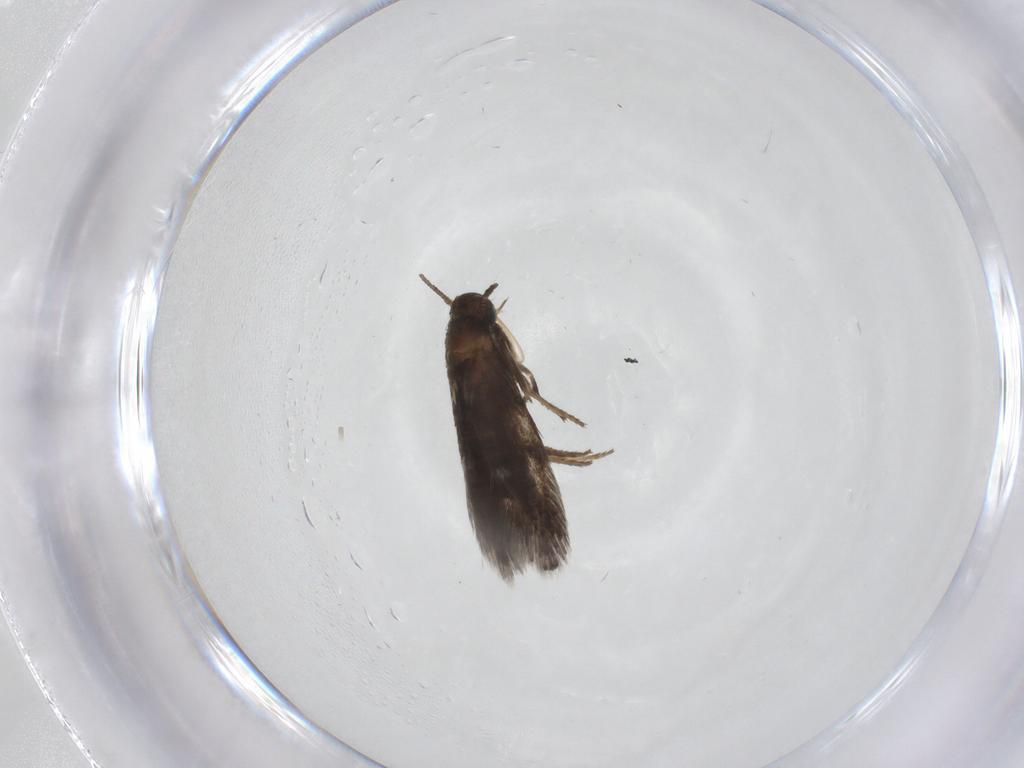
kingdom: Animalia
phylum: Arthropoda
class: Insecta
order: Lepidoptera
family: Heliozelidae
